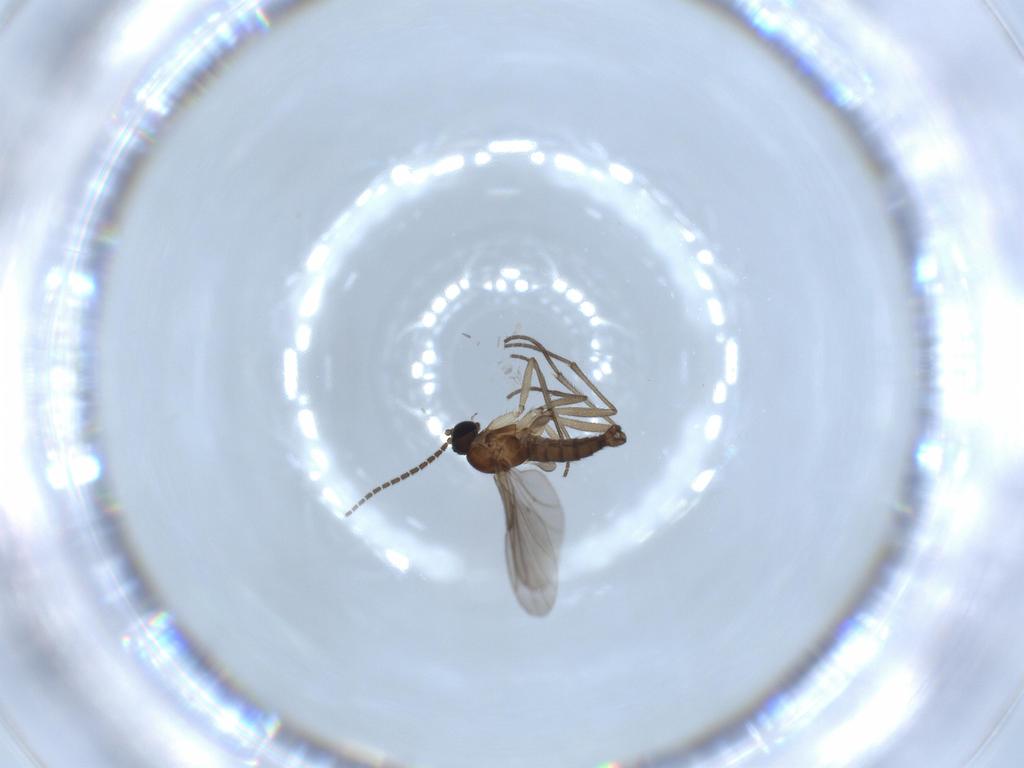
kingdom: Animalia
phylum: Arthropoda
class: Insecta
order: Diptera
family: Sciaridae
